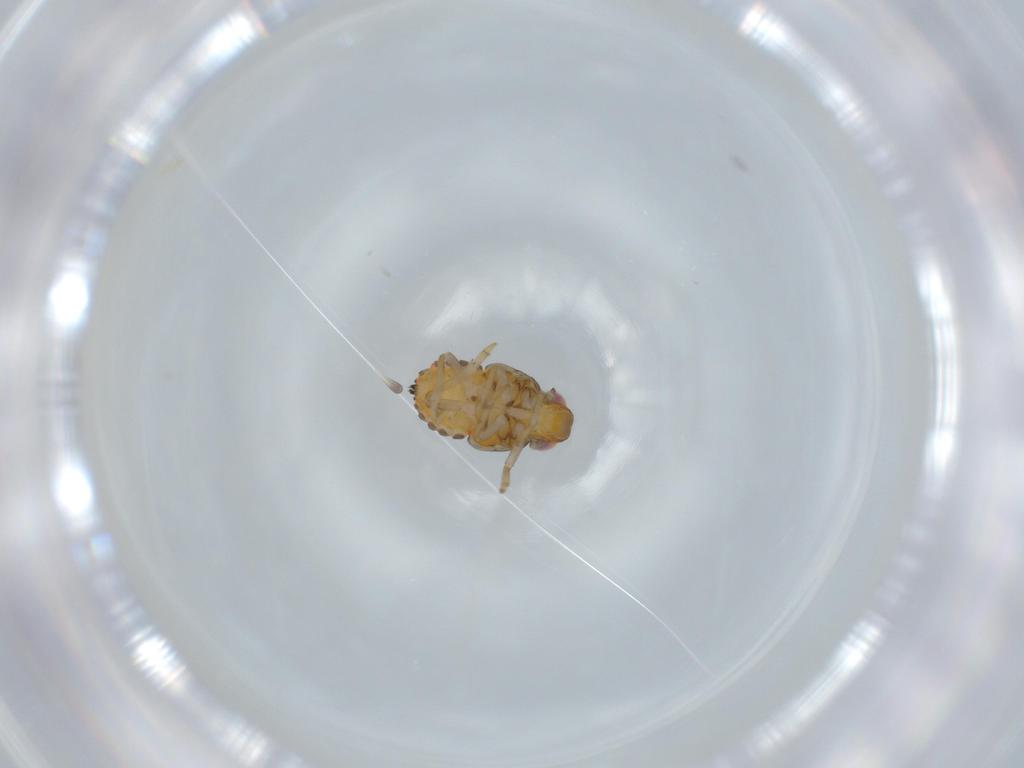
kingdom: Animalia
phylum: Arthropoda
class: Insecta
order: Hemiptera
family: Issidae
